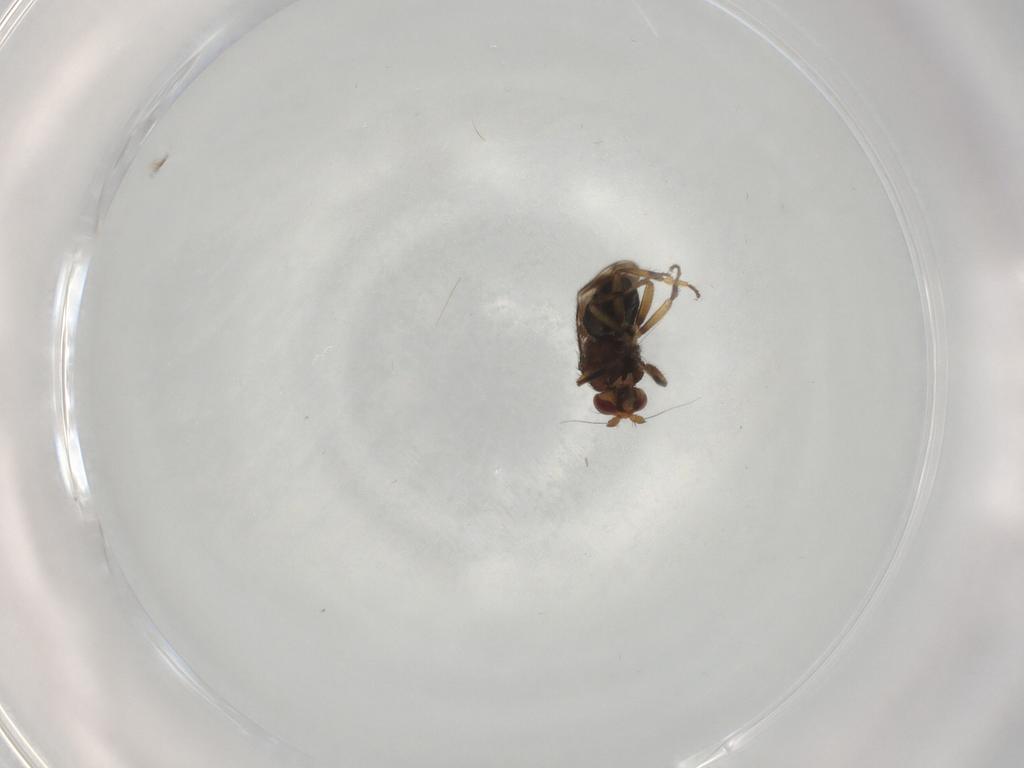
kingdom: Animalia
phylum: Arthropoda
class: Insecta
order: Diptera
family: Sphaeroceridae
